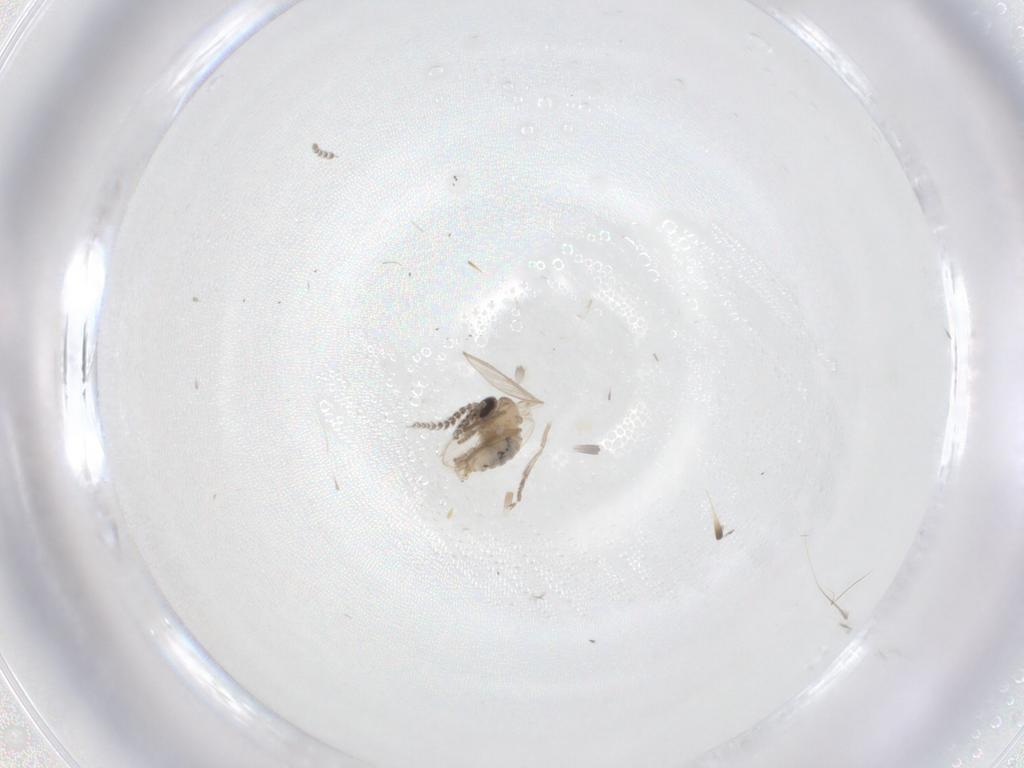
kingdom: Animalia
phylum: Arthropoda
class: Insecta
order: Diptera
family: Psychodidae
